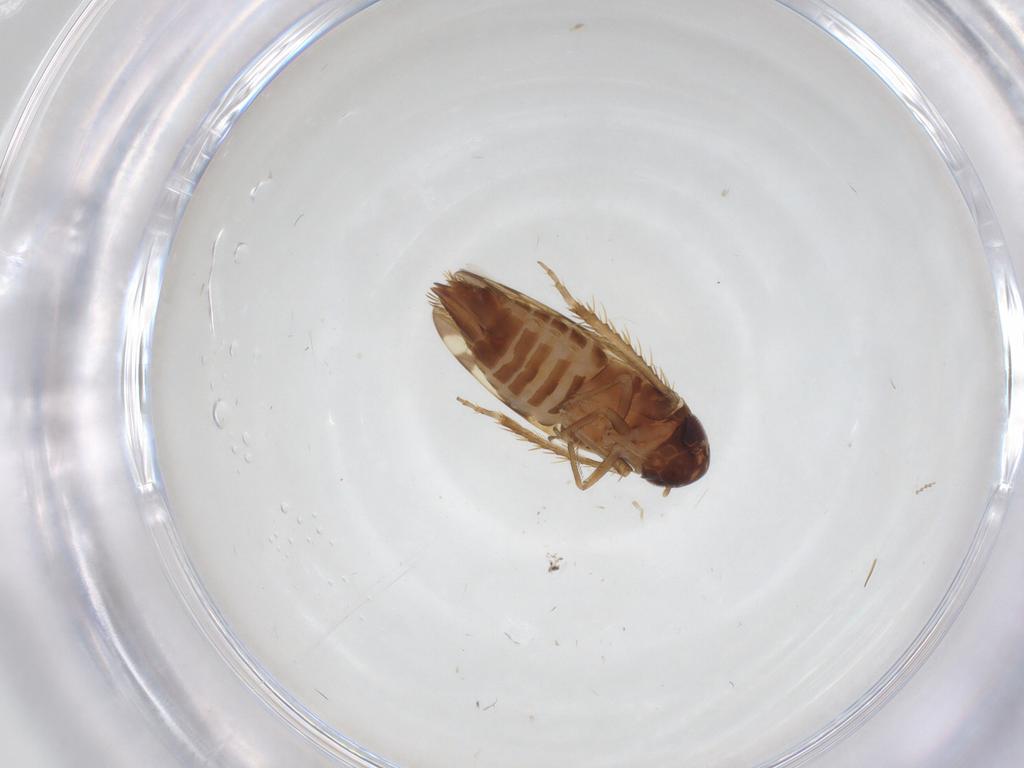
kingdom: Animalia
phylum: Arthropoda
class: Insecta
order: Hemiptera
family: Cicadellidae
